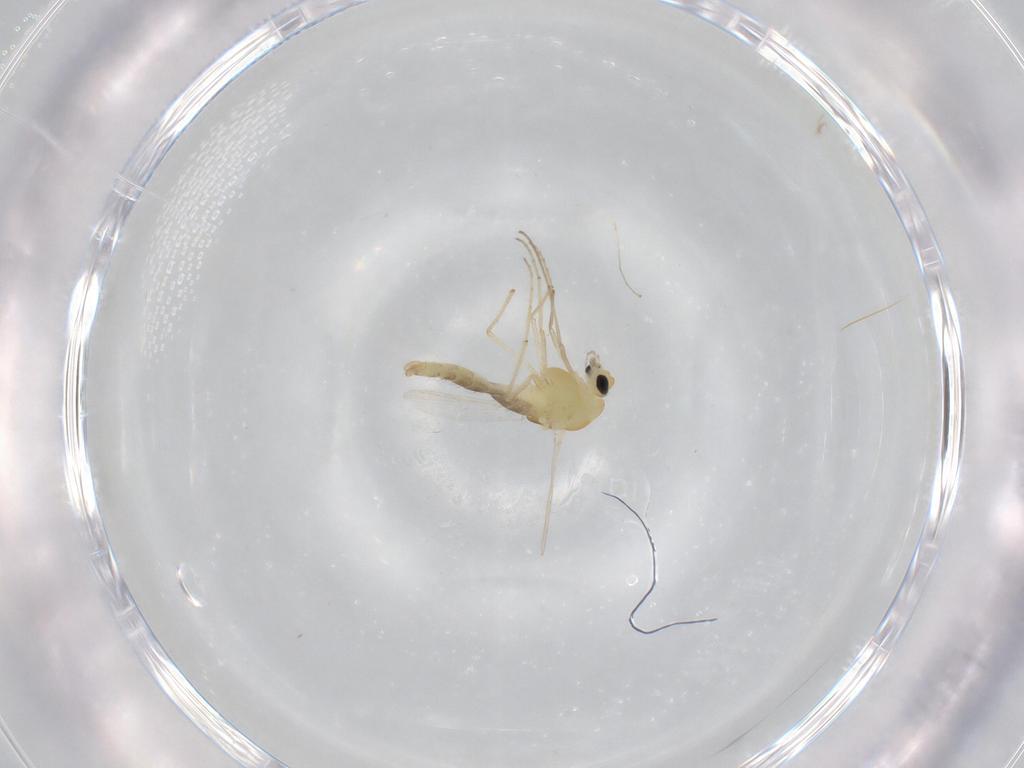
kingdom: Animalia
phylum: Arthropoda
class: Insecta
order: Diptera
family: Chironomidae
